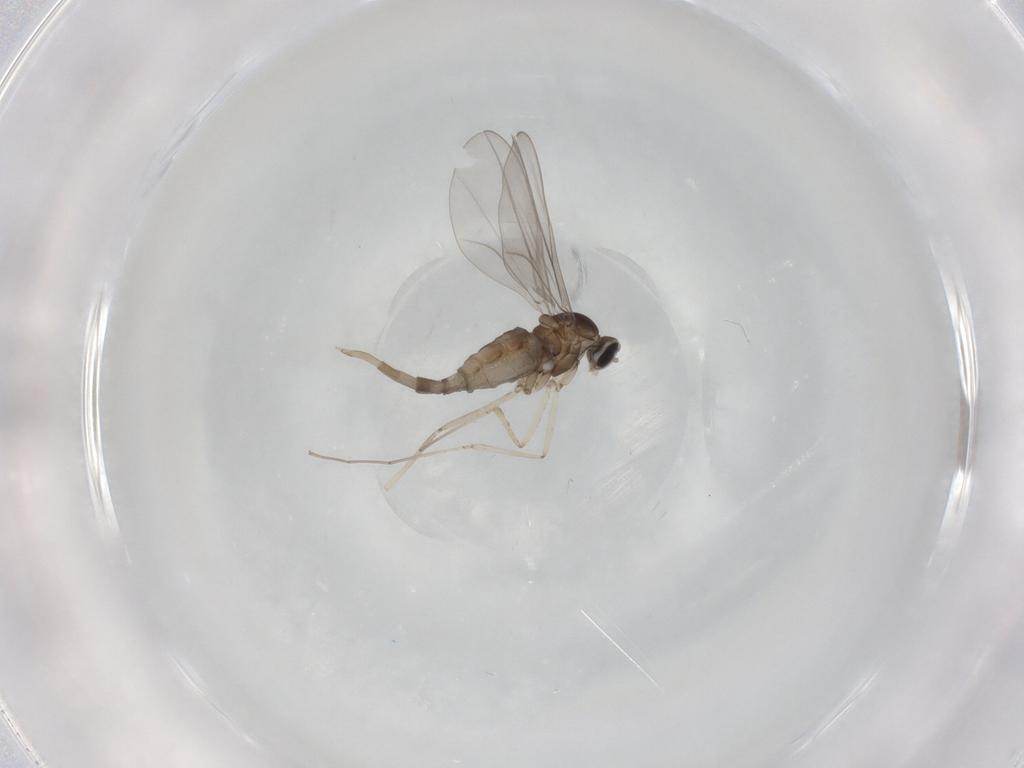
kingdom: Animalia
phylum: Arthropoda
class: Insecta
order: Diptera
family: Cecidomyiidae
